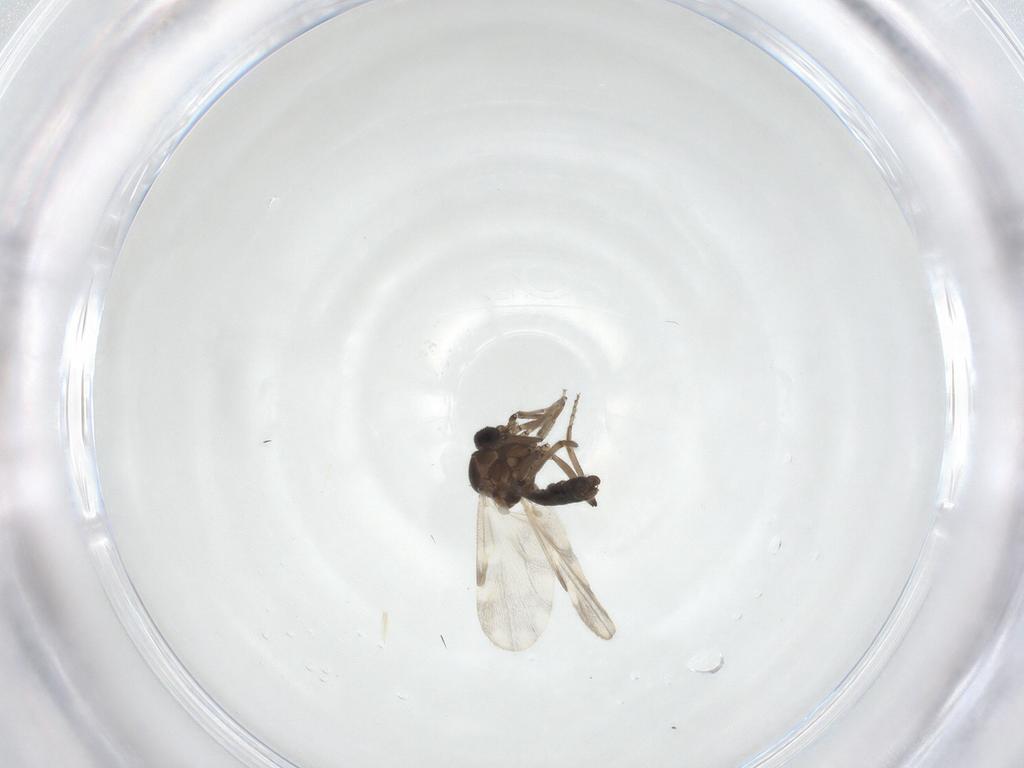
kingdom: Animalia
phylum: Arthropoda
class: Insecta
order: Diptera
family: Ceratopogonidae
